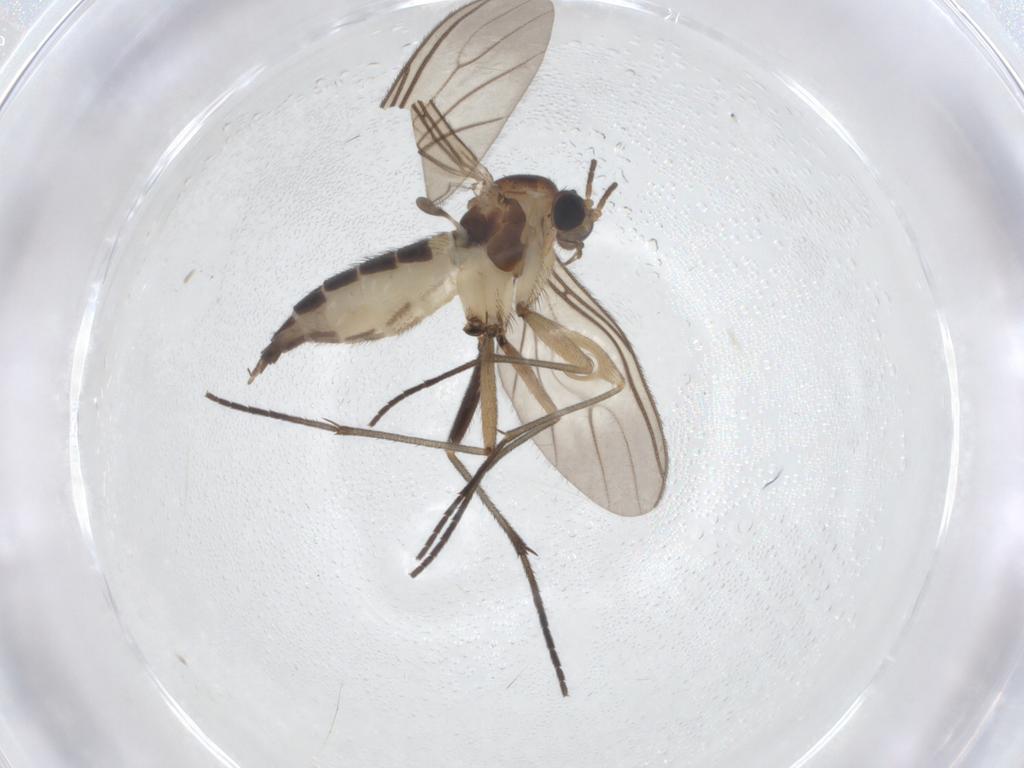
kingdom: Animalia
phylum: Arthropoda
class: Insecta
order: Diptera
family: Sciaridae
